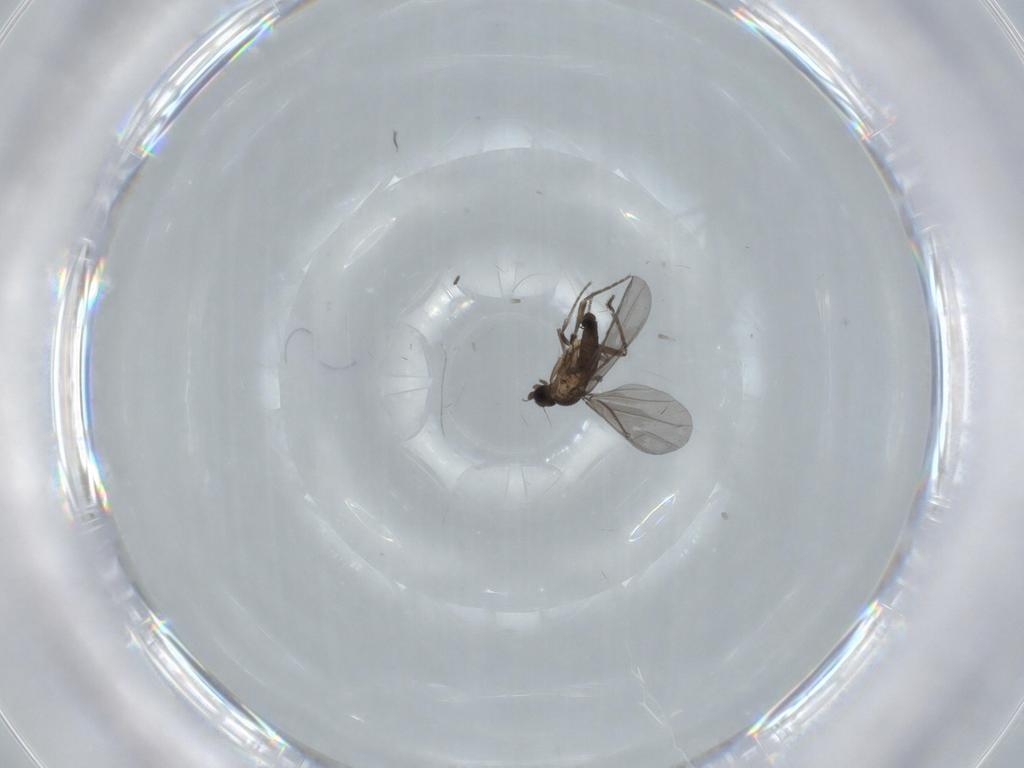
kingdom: Animalia
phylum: Arthropoda
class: Insecta
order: Diptera
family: Phoridae
